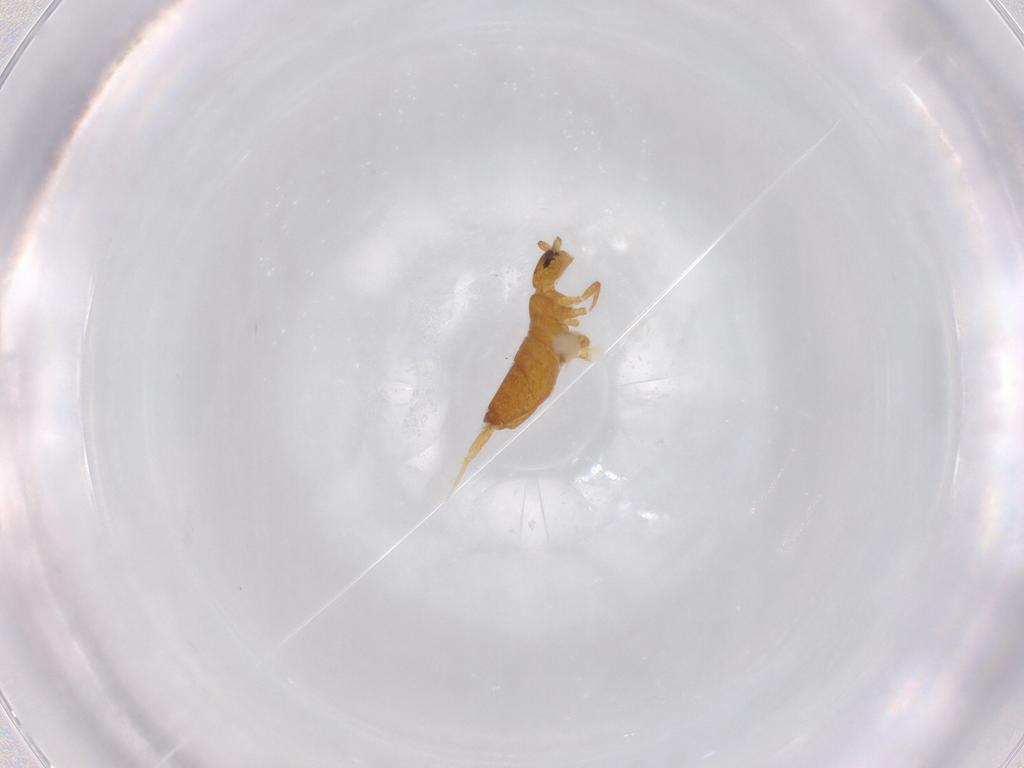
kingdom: Animalia
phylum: Arthropoda
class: Collembola
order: Entomobryomorpha
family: Entomobryidae
